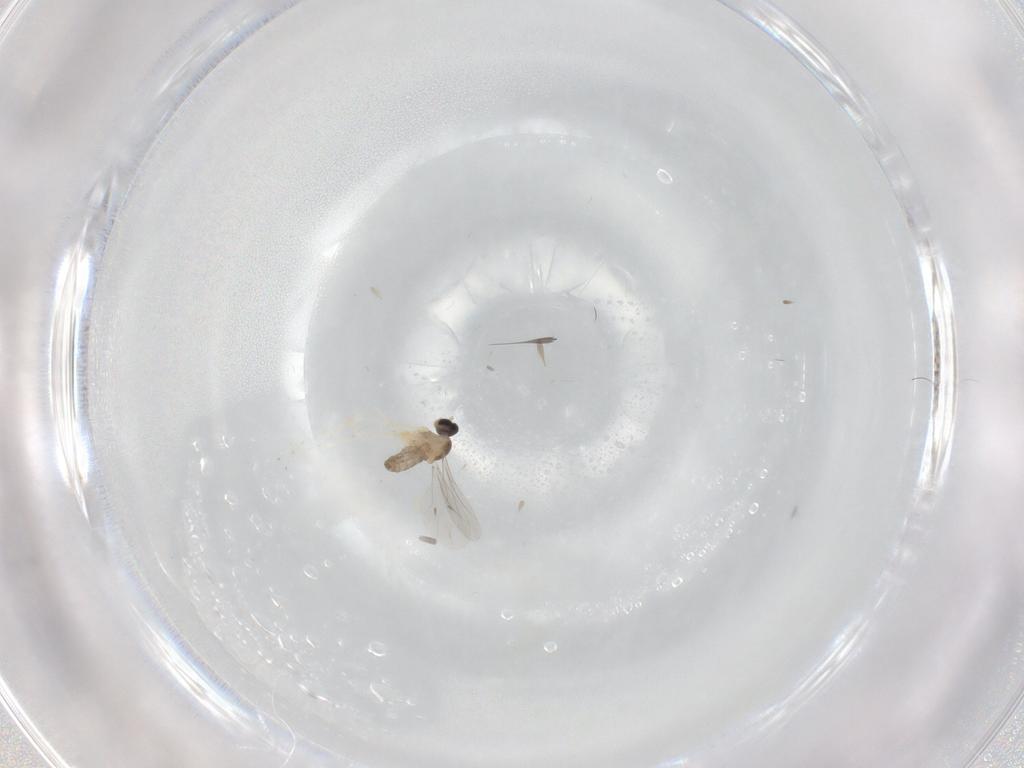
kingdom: Animalia
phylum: Arthropoda
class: Insecta
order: Diptera
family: Cecidomyiidae
